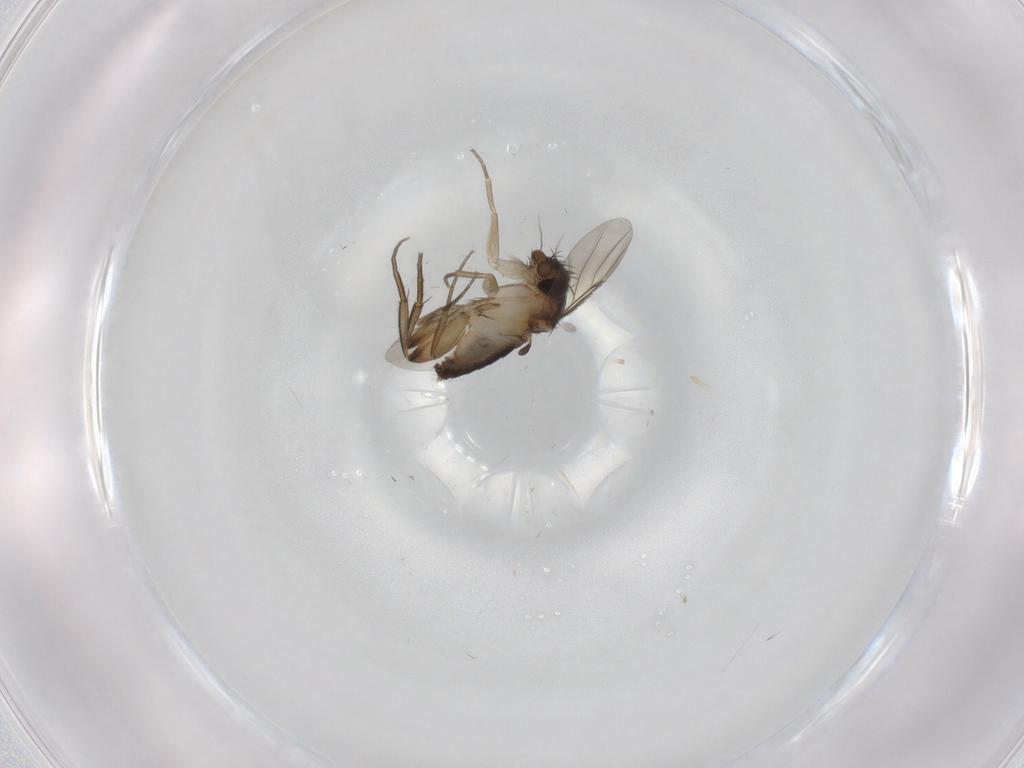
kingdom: Animalia
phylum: Arthropoda
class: Insecta
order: Diptera
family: Phoridae
